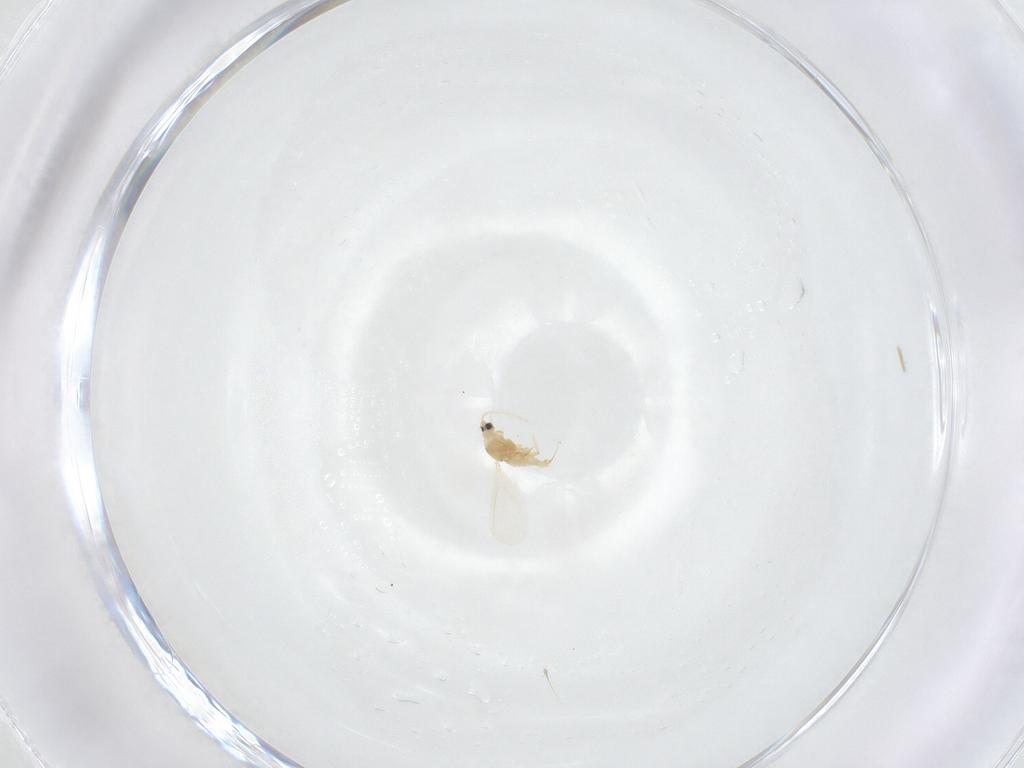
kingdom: Animalia
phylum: Arthropoda
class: Insecta
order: Diptera
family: Psychodidae
